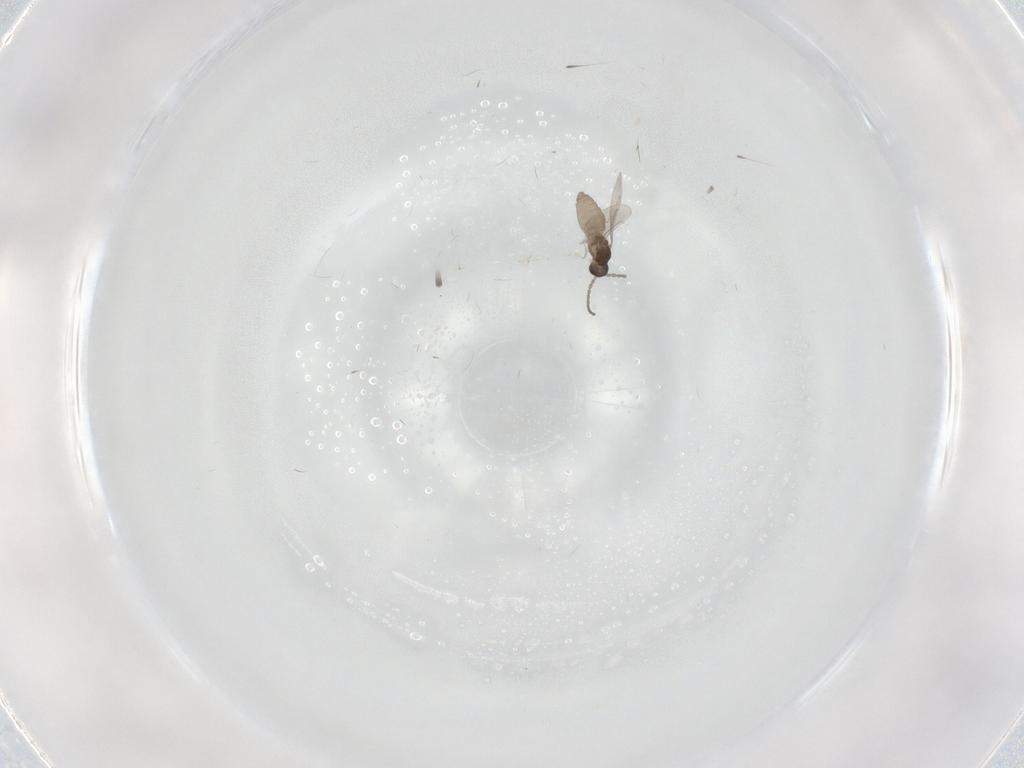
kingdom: Animalia
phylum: Arthropoda
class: Insecta
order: Diptera
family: Cecidomyiidae
